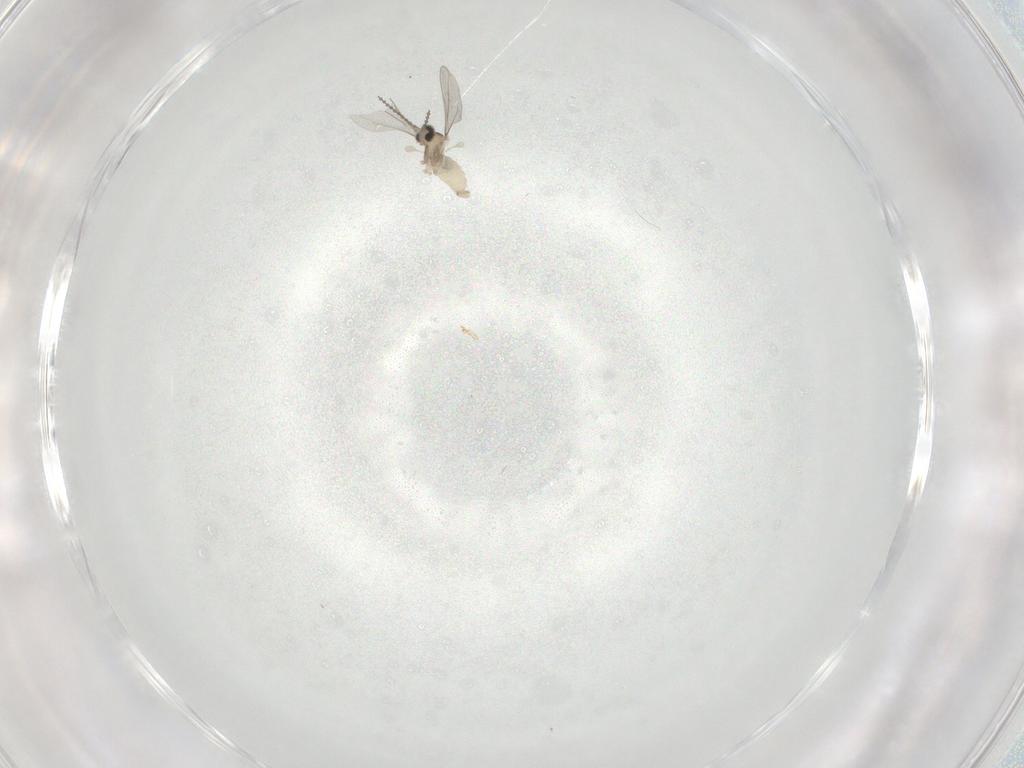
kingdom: Animalia
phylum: Arthropoda
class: Insecta
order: Diptera
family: Cecidomyiidae
